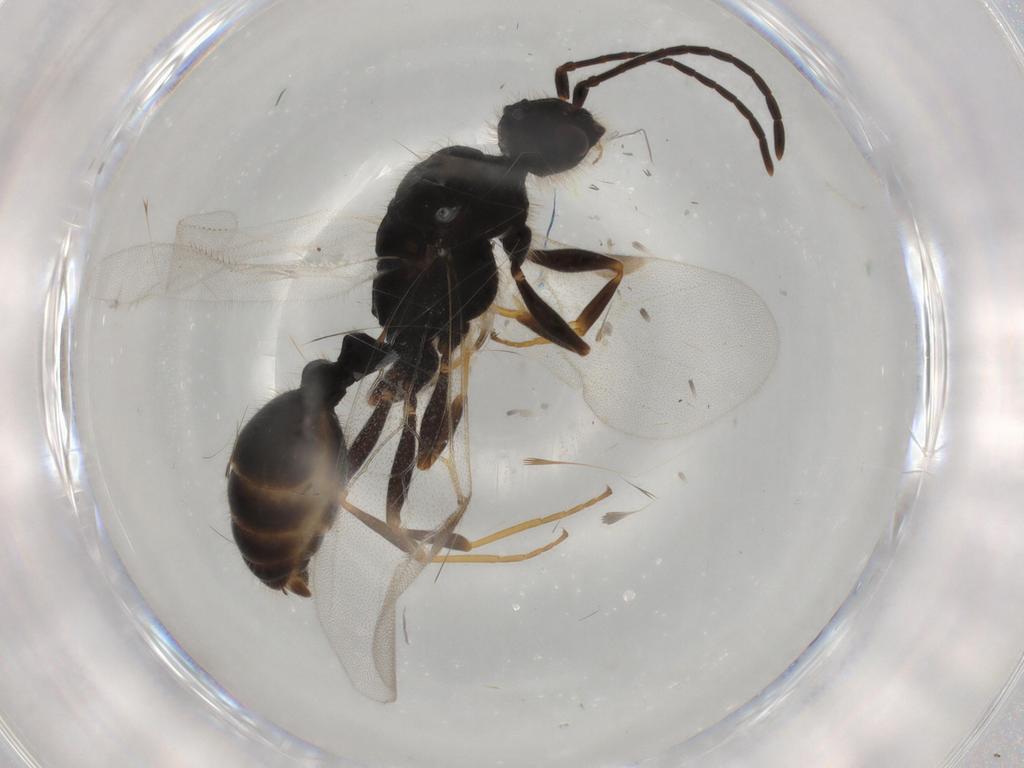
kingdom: Animalia
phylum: Arthropoda
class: Insecta
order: Hymenoptera
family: Formicidae
